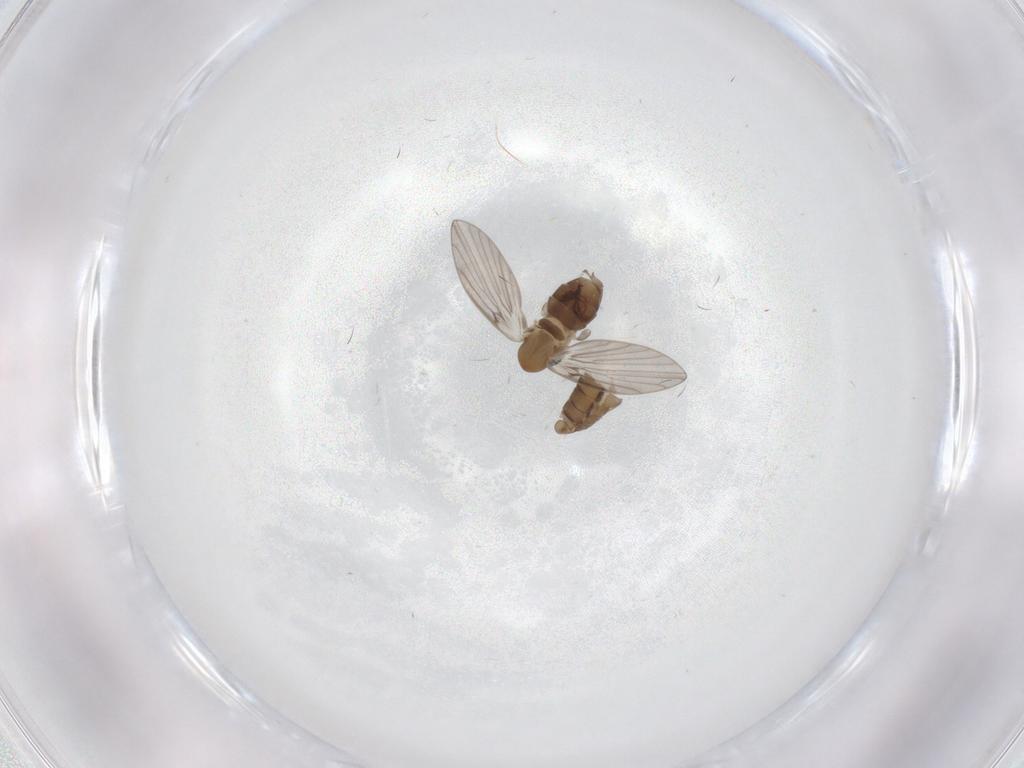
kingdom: Animalia
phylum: Arthropoda
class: Insecta
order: Diptera
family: Psychodidae
